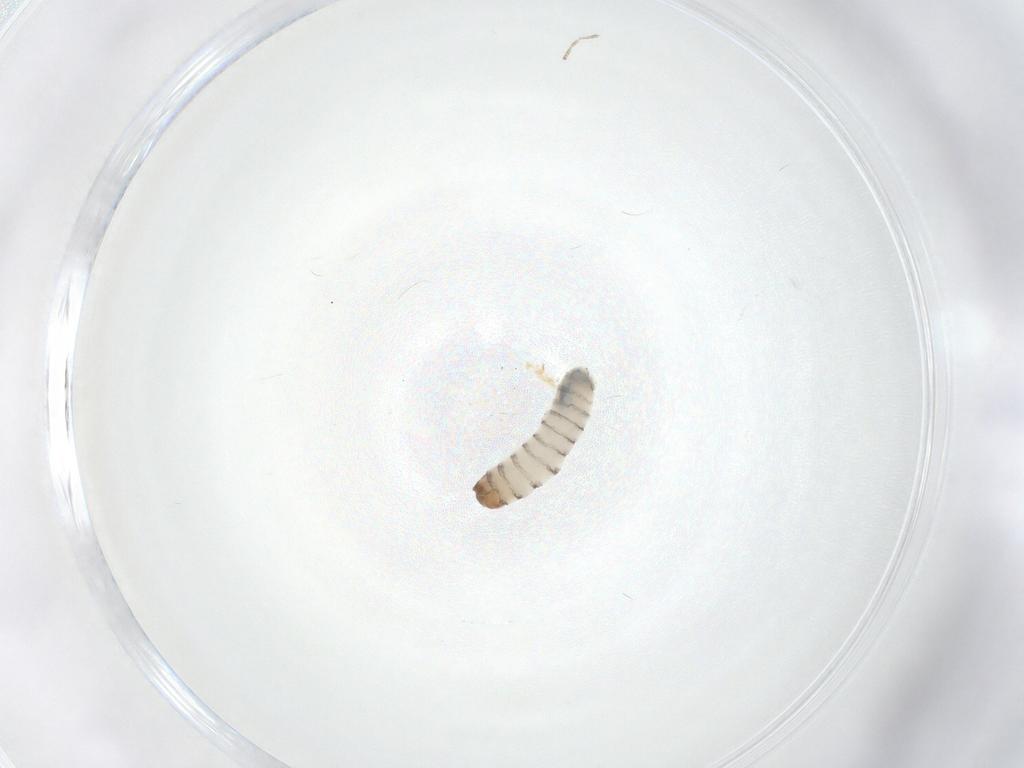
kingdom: Animalia
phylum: Arthropoda
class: Insecta
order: Diptera
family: Sarcophagidae
